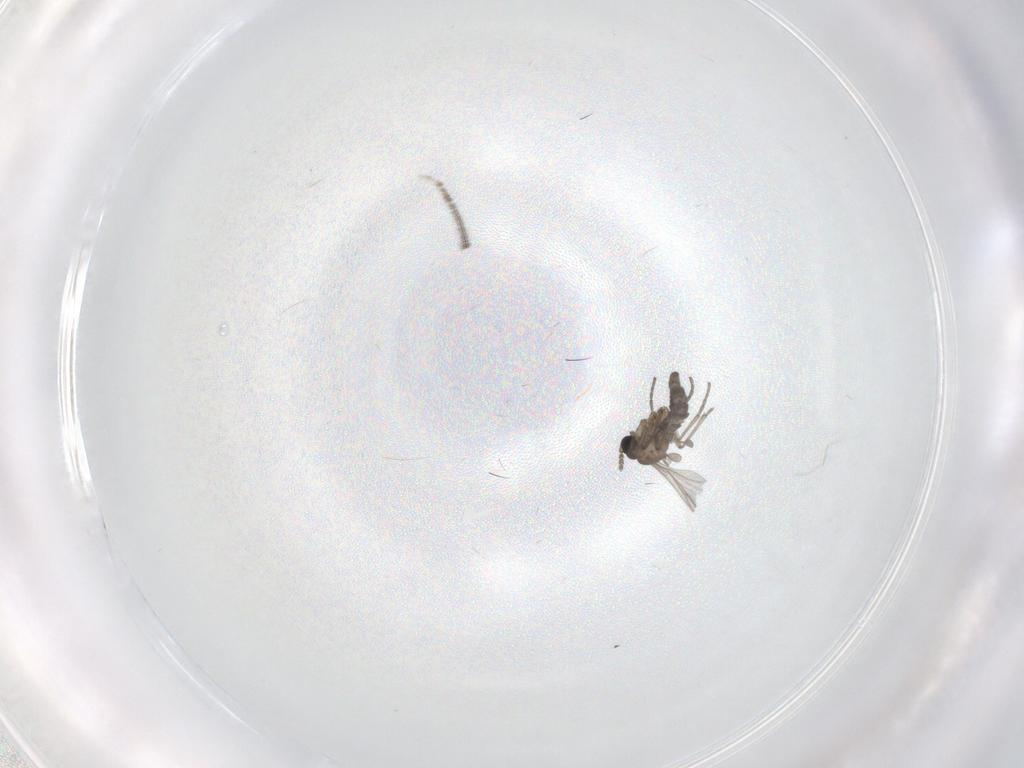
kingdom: Animalia
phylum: Arthropoda
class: Insecta
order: Diptera
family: Sciaridae
